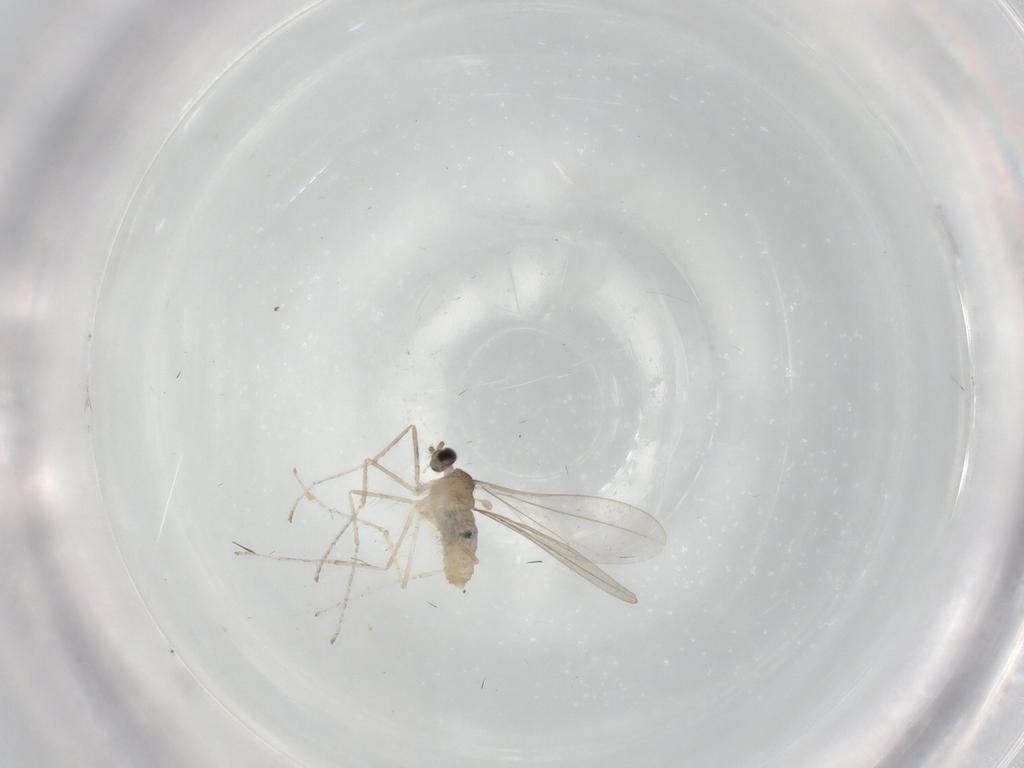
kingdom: Animalia
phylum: Arthropoda
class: Insecta
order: Diptera
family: Cecidomyiidae
